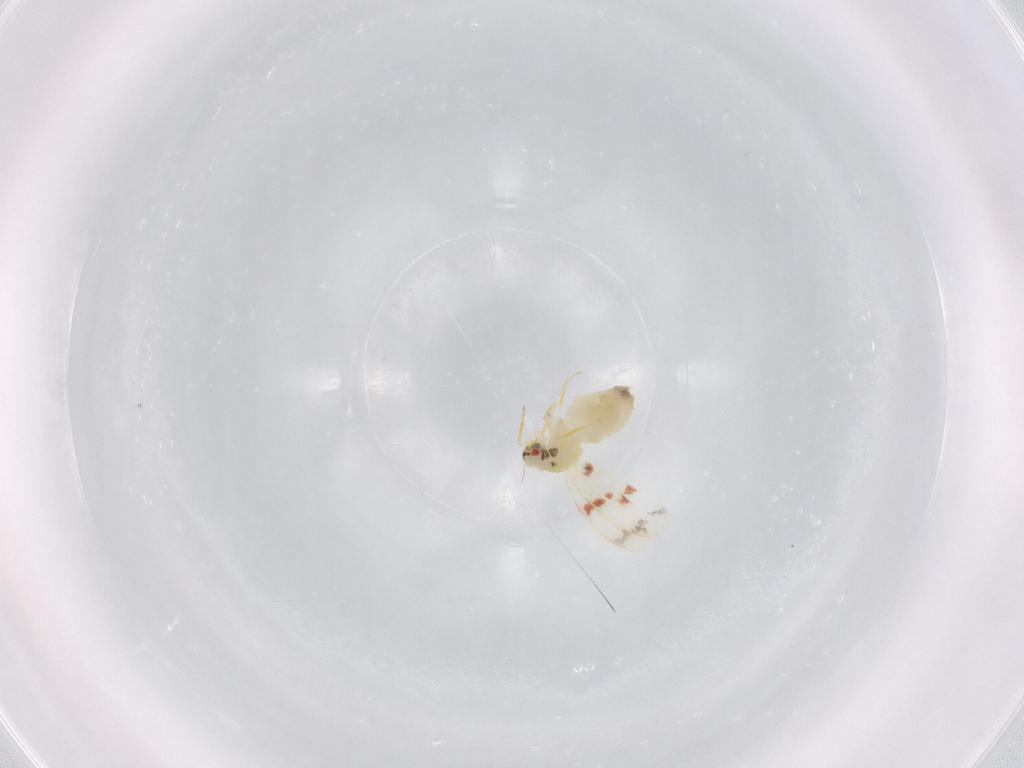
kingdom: Animalia
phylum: Arthropoda
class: Insecta
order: Hemiptera
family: Aleyrodidae
